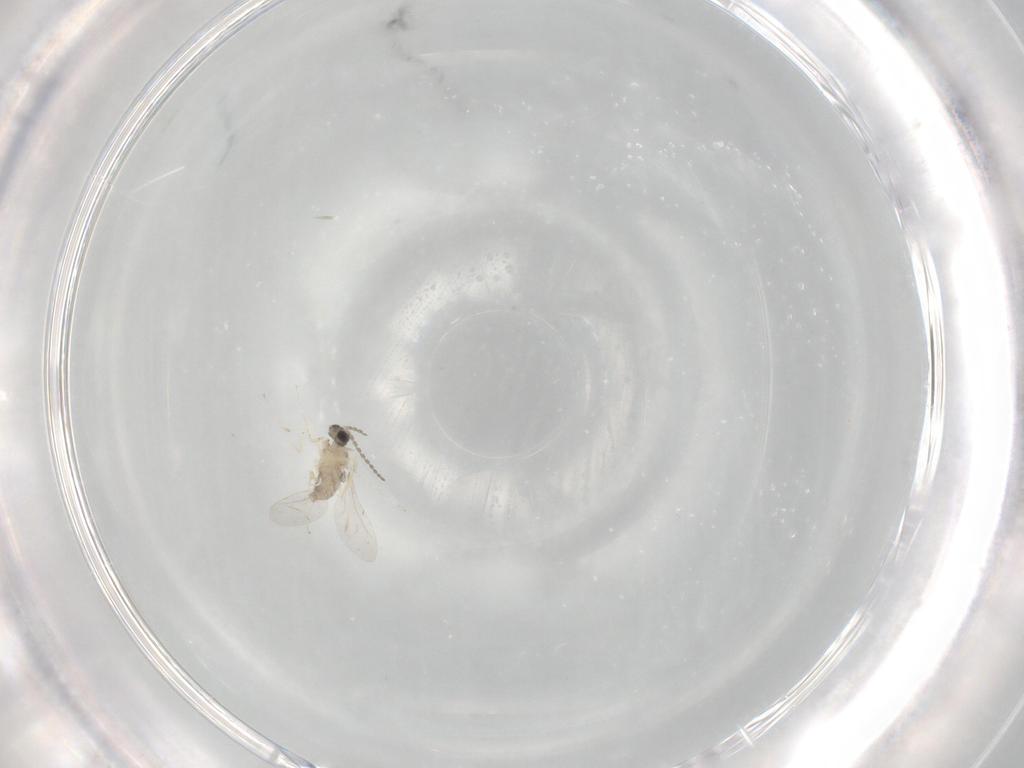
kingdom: Animalia
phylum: Arthropoda
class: Insecta
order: Diptera
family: Cecidomyiidae
